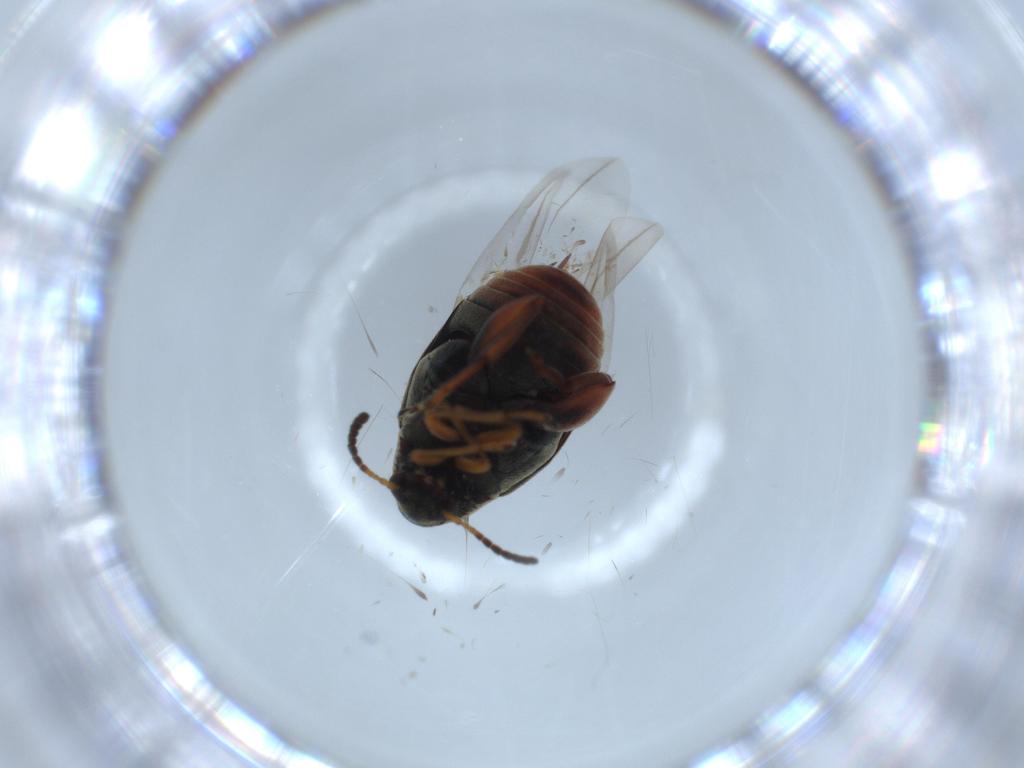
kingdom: Animalia
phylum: Arthropoda
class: Insecta
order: Coleoptera
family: Chrysomelidae
